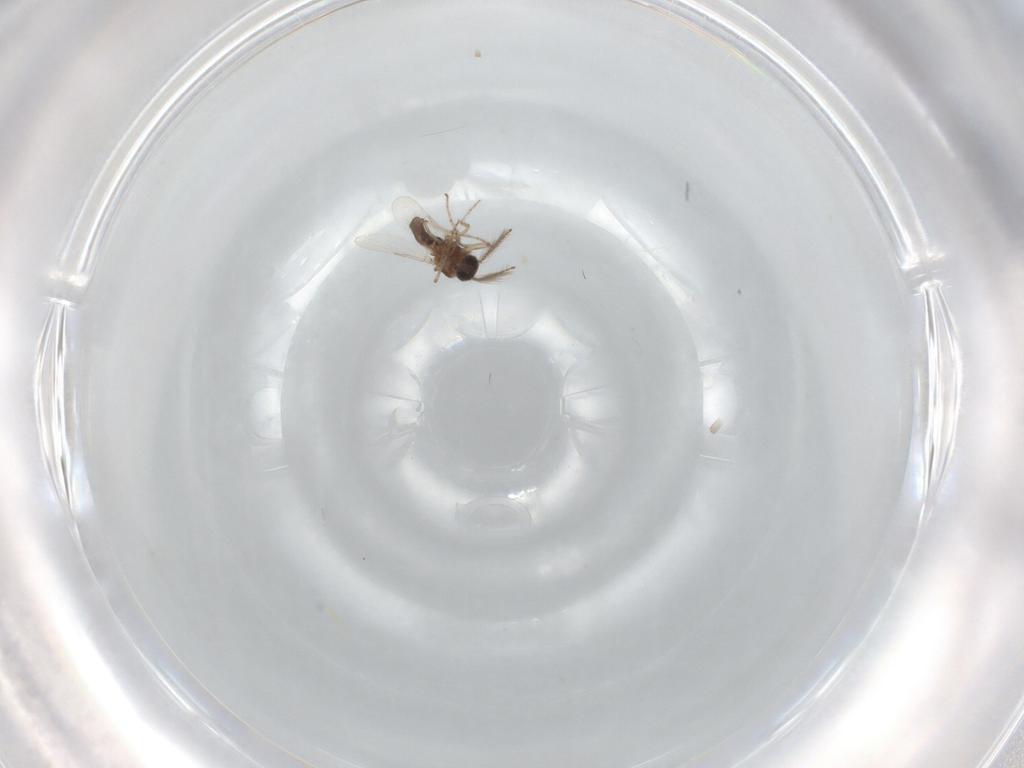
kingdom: Animalia
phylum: Arthropoda
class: Insecta
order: Diptera
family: Ceratopogonidae
